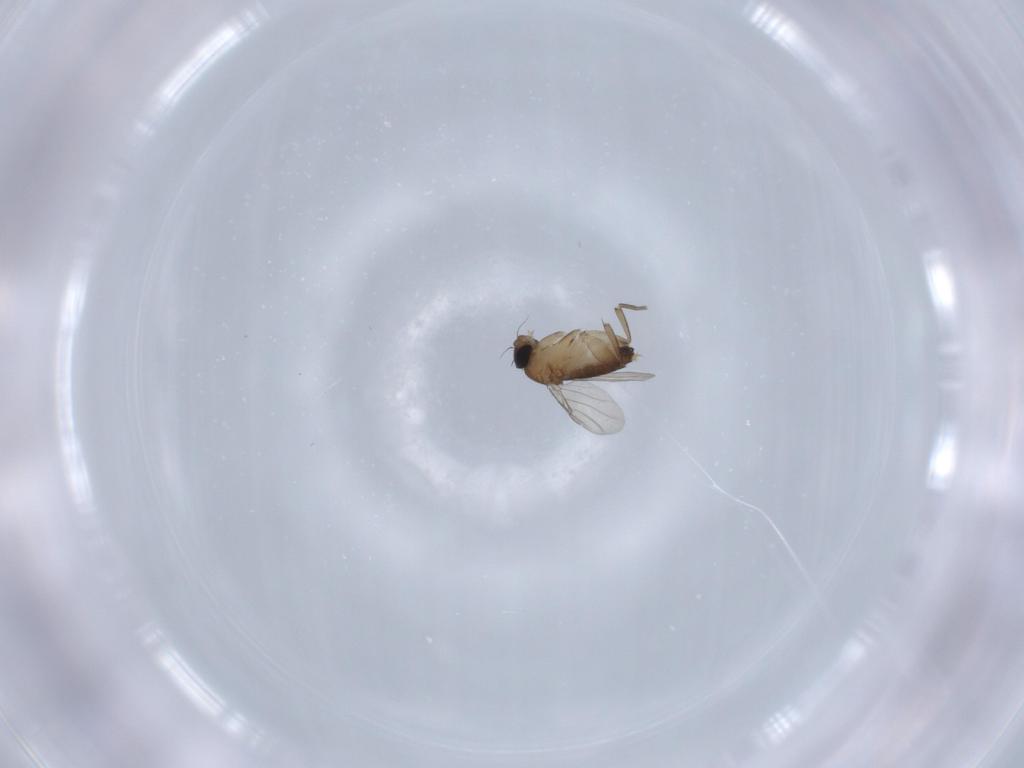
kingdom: Animalia
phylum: Arthropoda
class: Insecta
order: Diptera
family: Phoridae
